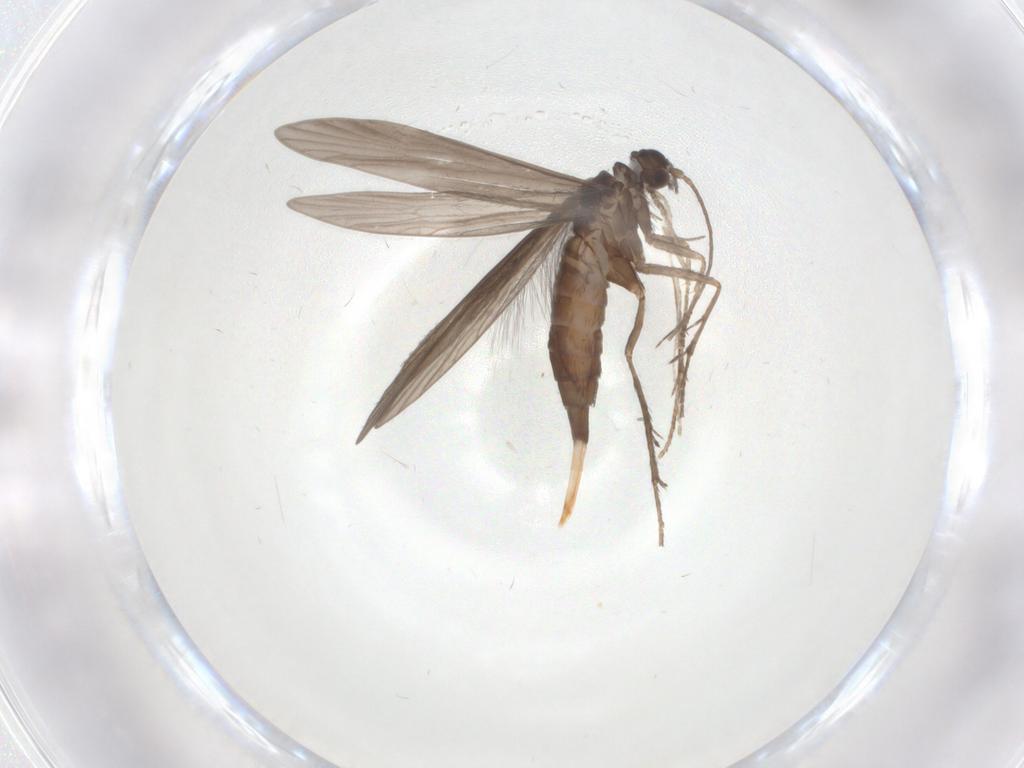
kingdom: Animalia
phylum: Arthropoda
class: Insecta
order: Trichoptera
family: Xiphocentronidae
